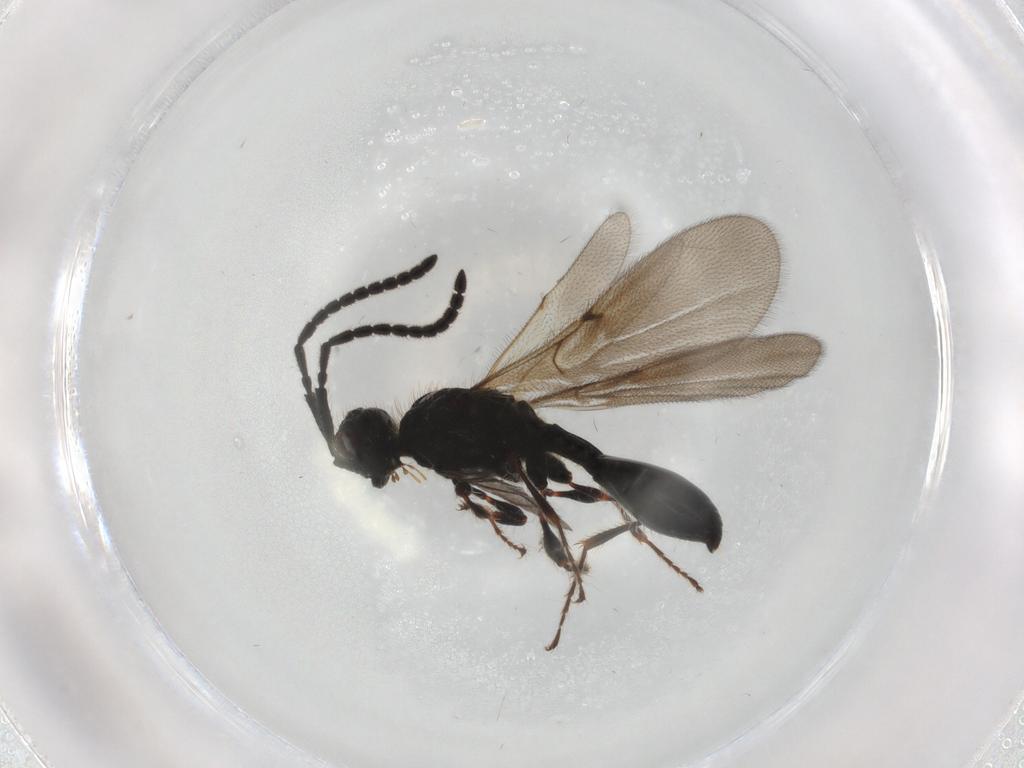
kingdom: Animalia
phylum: Arthropoda
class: Insecta
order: Hymenoptera
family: Diapriidae
